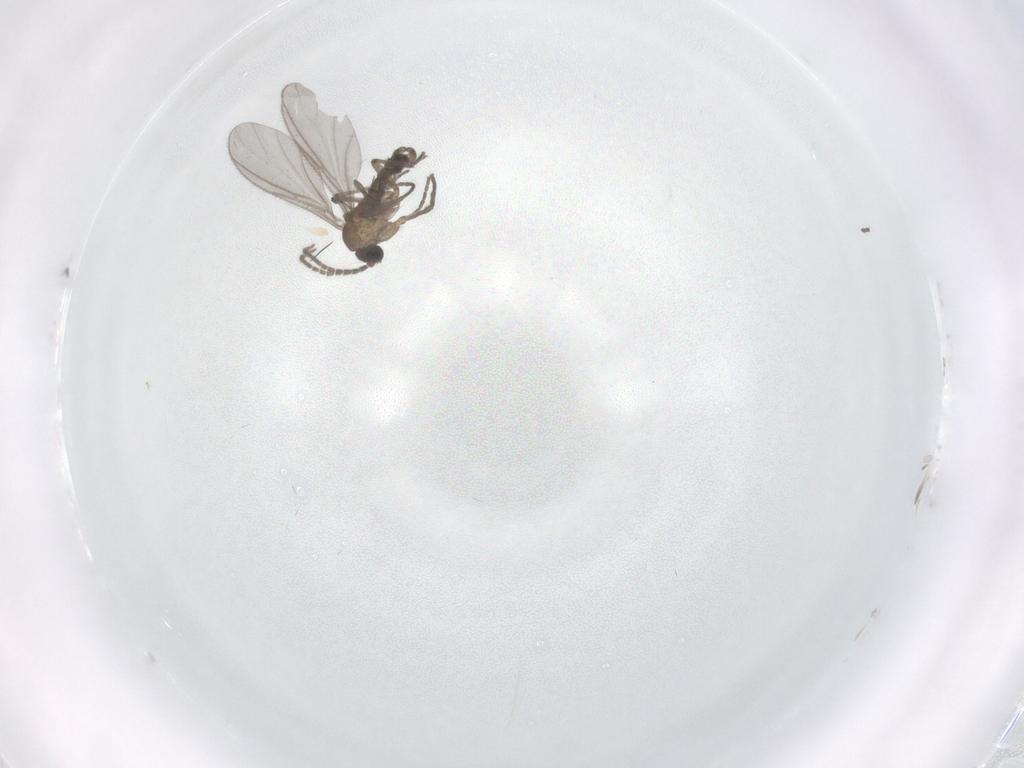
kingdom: Animalia
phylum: Arthropoda
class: Insecta
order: Diptera
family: Sciaridae
